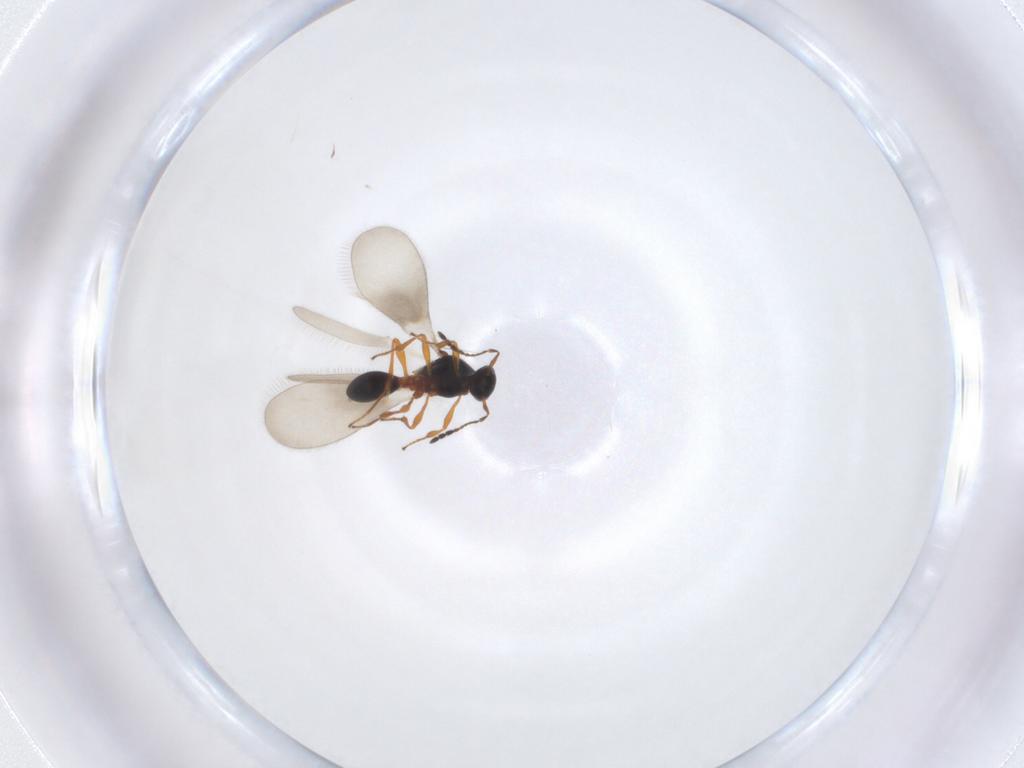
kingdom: Animalia
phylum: Arthropoda
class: Insecta
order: Hymenoptera
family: Platygastridae
